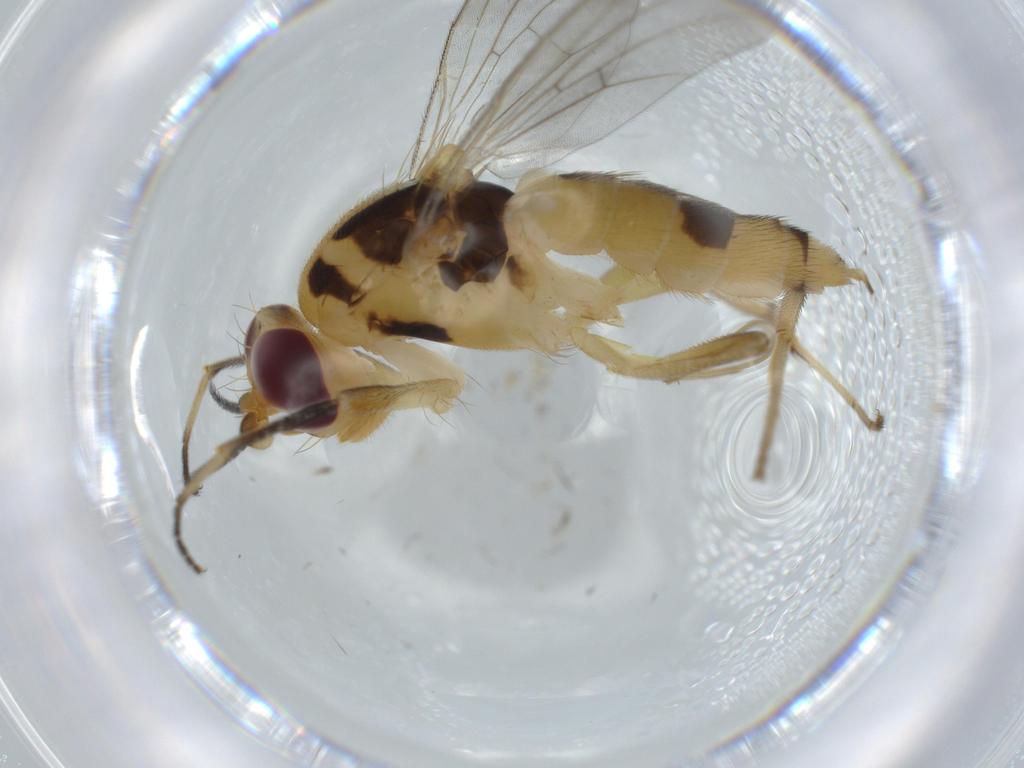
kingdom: Animalia
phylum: Arthropoda
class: Insecta
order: Diptera
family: Clusiidae
